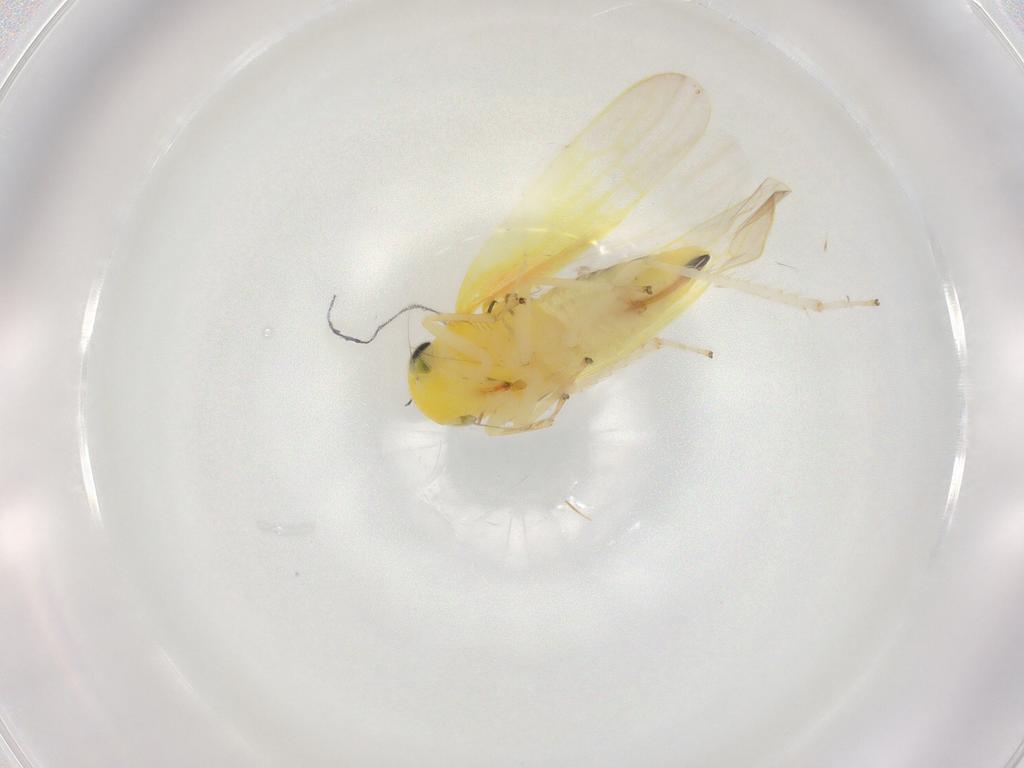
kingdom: Animalia
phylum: Arthropoda
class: Insecta
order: Hemiptera
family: Cicadellidae
